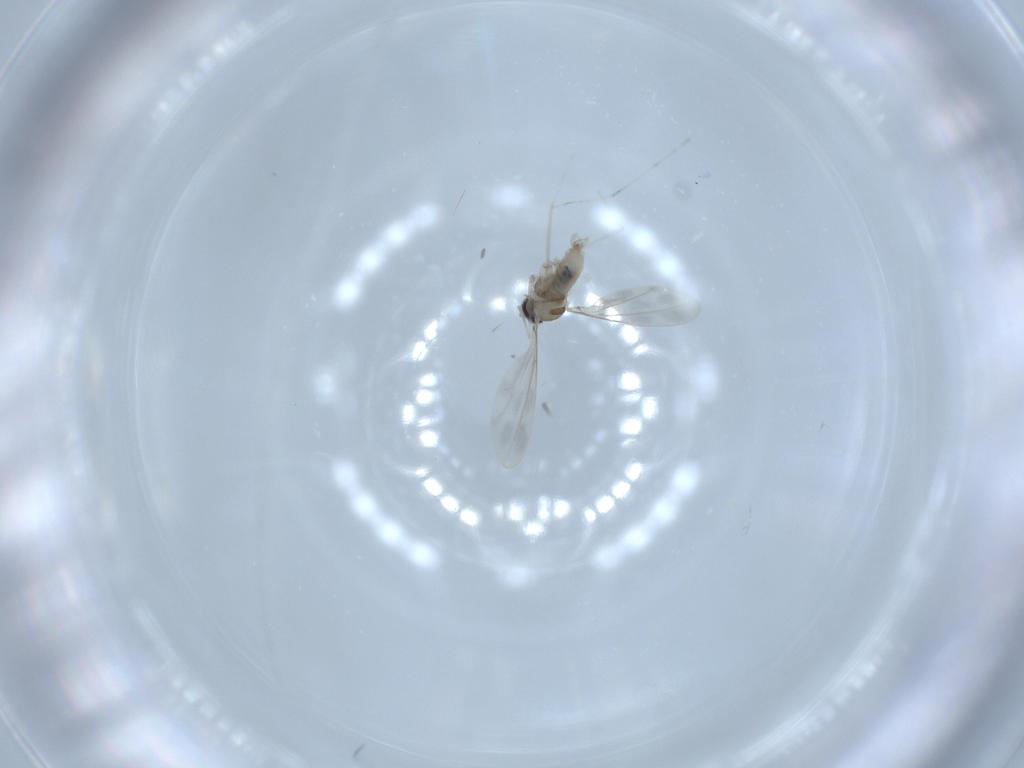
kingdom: Animalia
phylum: Arthropoda
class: Insecta
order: Diptera
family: Cecidomyiidae
